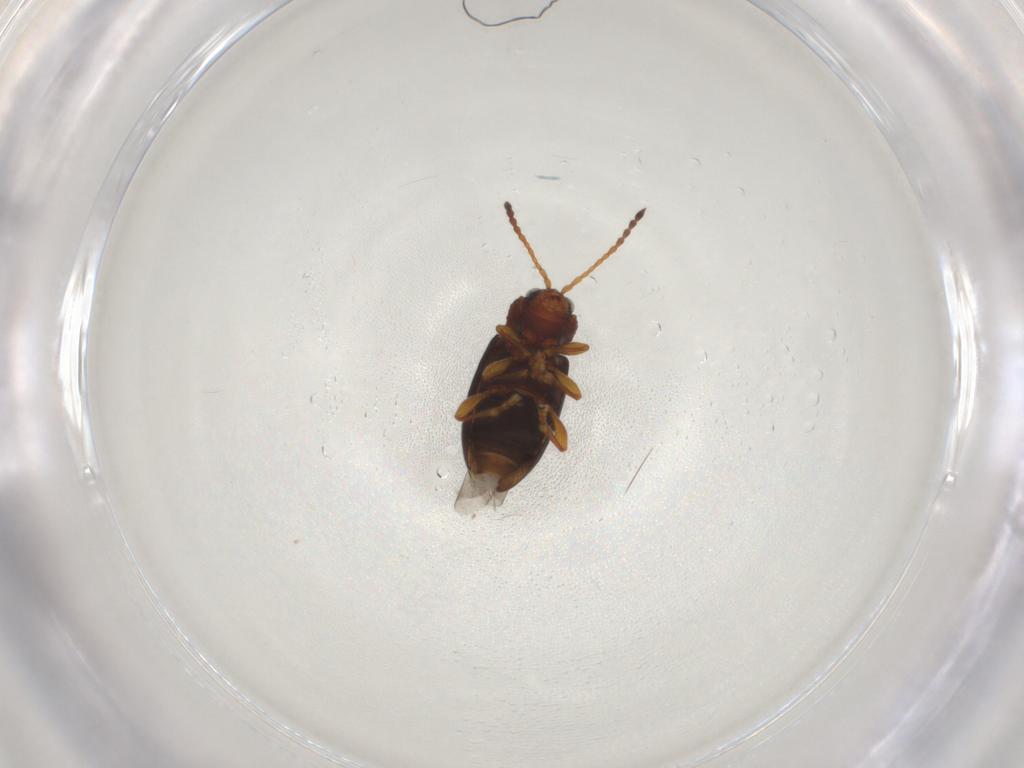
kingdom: Animalia
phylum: Arthropoda
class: Insecta
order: Coleoptera
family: Chrysomelidae
